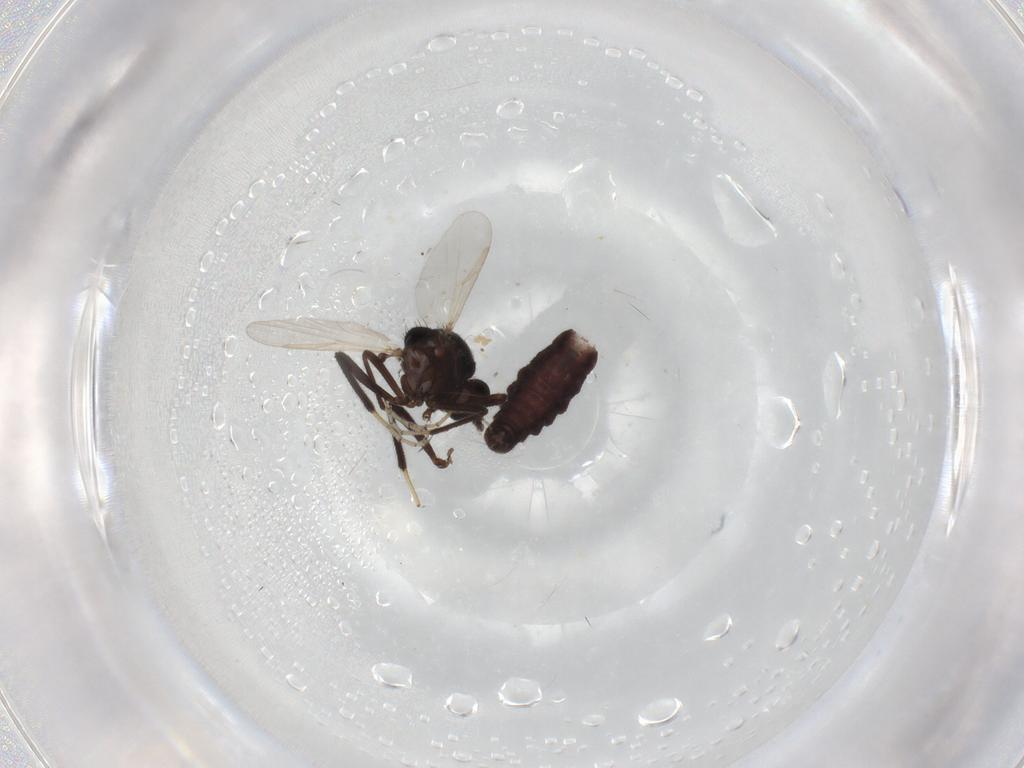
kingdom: Animalia
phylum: Arthropoda
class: Insecta
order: Diptera
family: Ceratopogonidae
